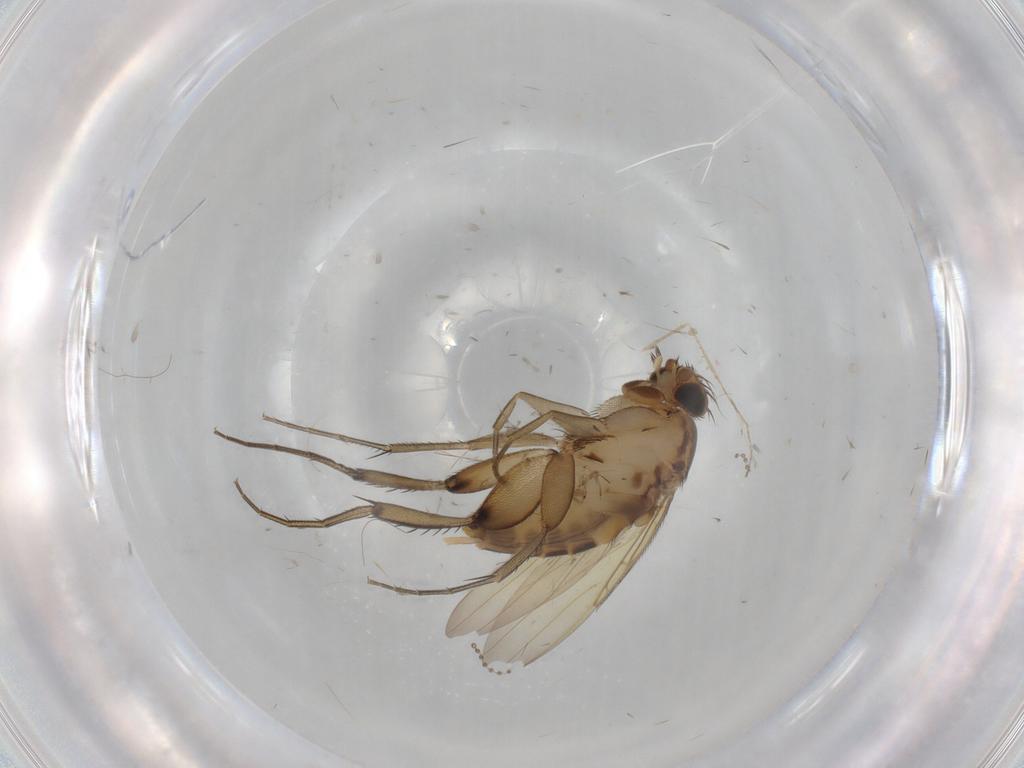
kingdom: Animalia
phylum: Arthropoda
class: Insecta
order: Diptera
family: Psychodidae
